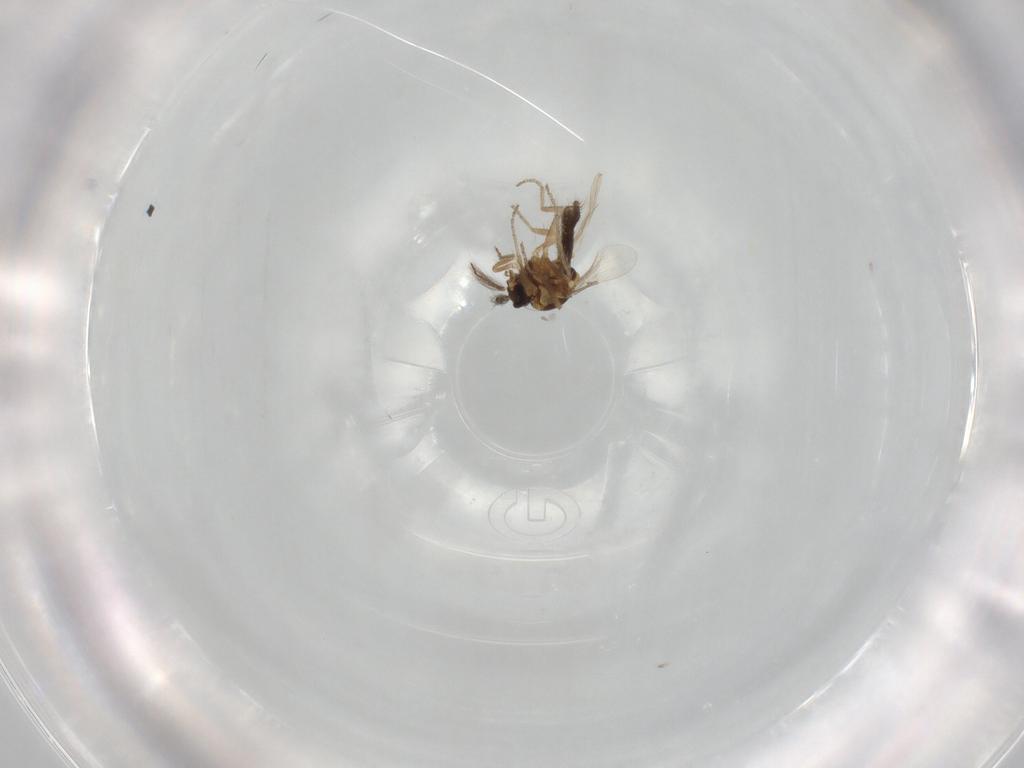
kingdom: Animalia
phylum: Arthropoda
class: Insecta
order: Diptera
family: Ceratopogonidae
